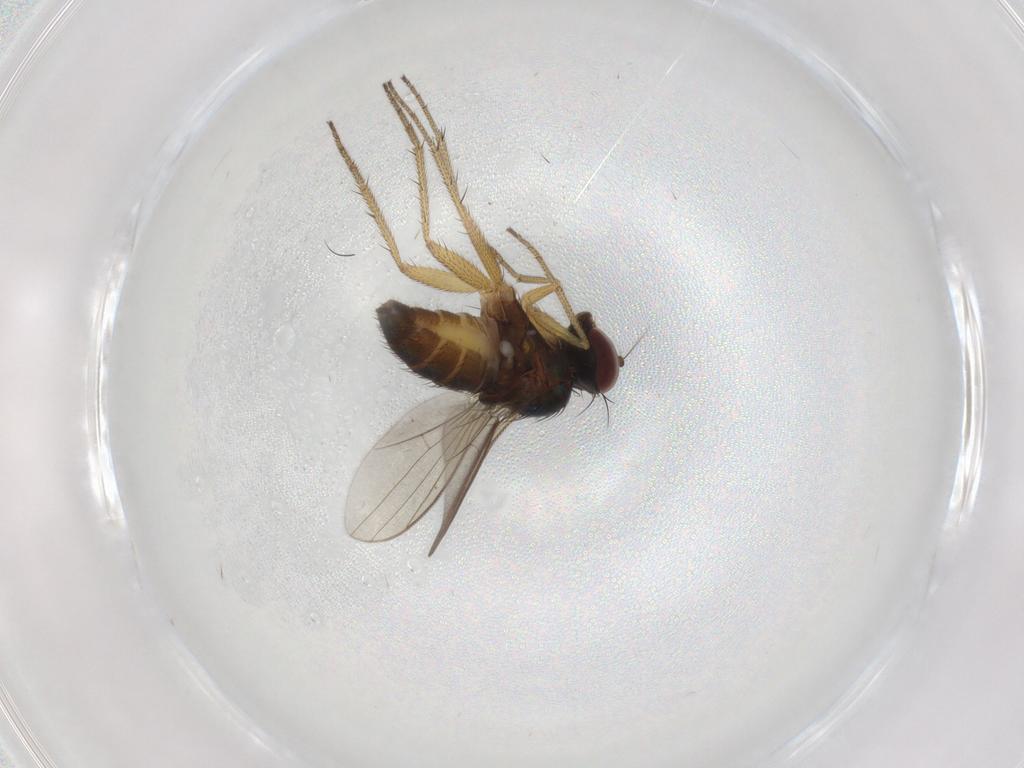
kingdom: Animalia
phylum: Arthropoda
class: Insecta
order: Diptera
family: Dolichopodidae
